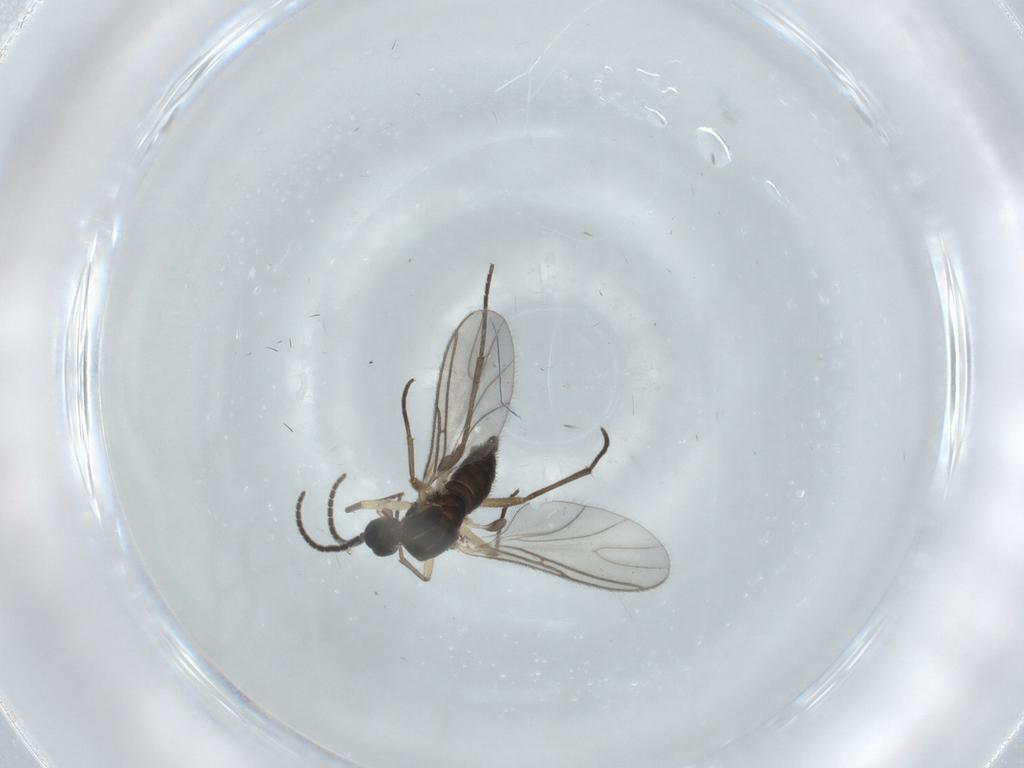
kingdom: Animalia
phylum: Arthropoda
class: Insecta
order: Diptera
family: Sciaridae
